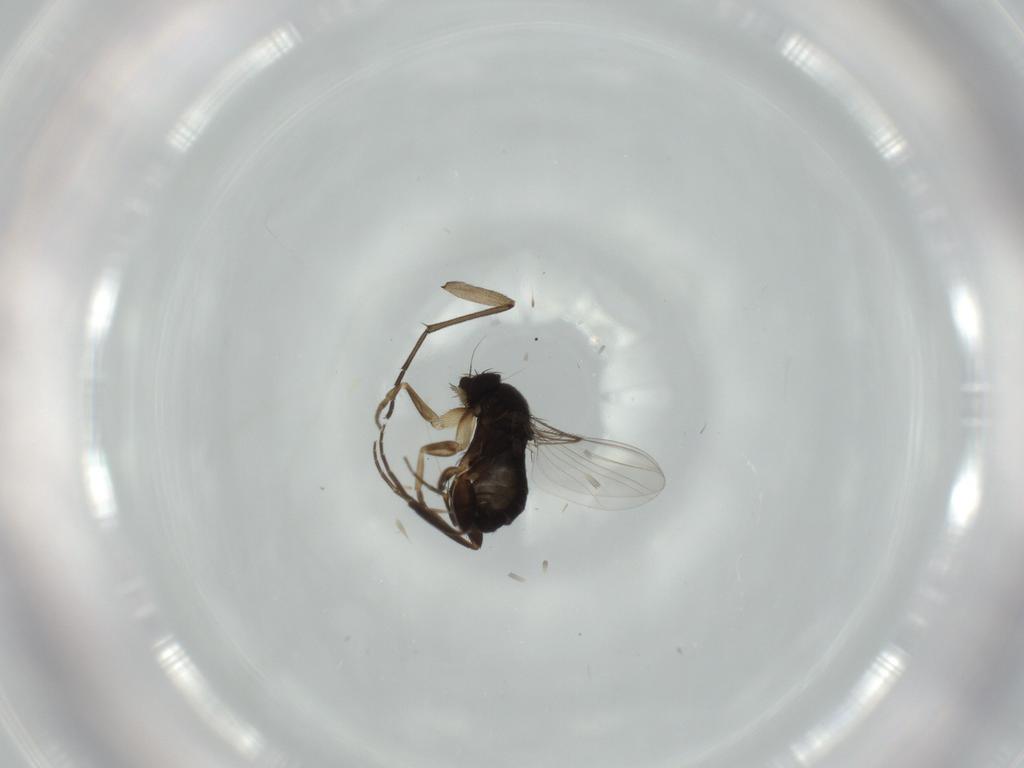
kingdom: Animalia
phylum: Arthropoda
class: Insecta
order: Diptera
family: Phoridae
